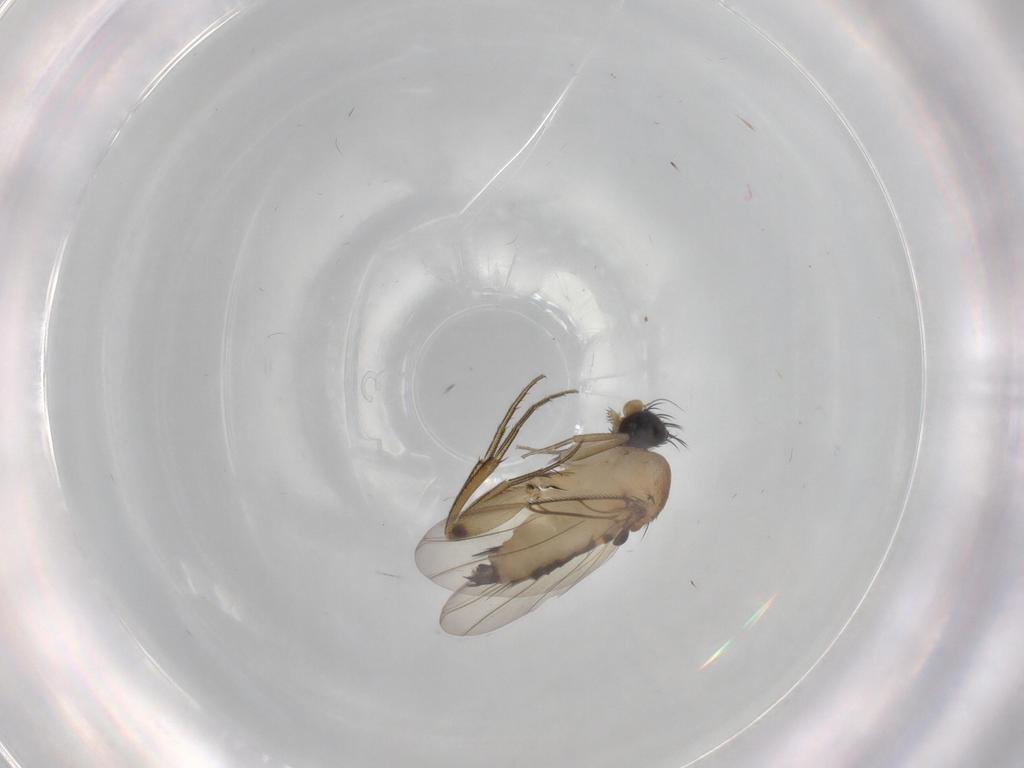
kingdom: Animalia
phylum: Arthropoda
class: Insecta
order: Diptera
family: Phoridae
